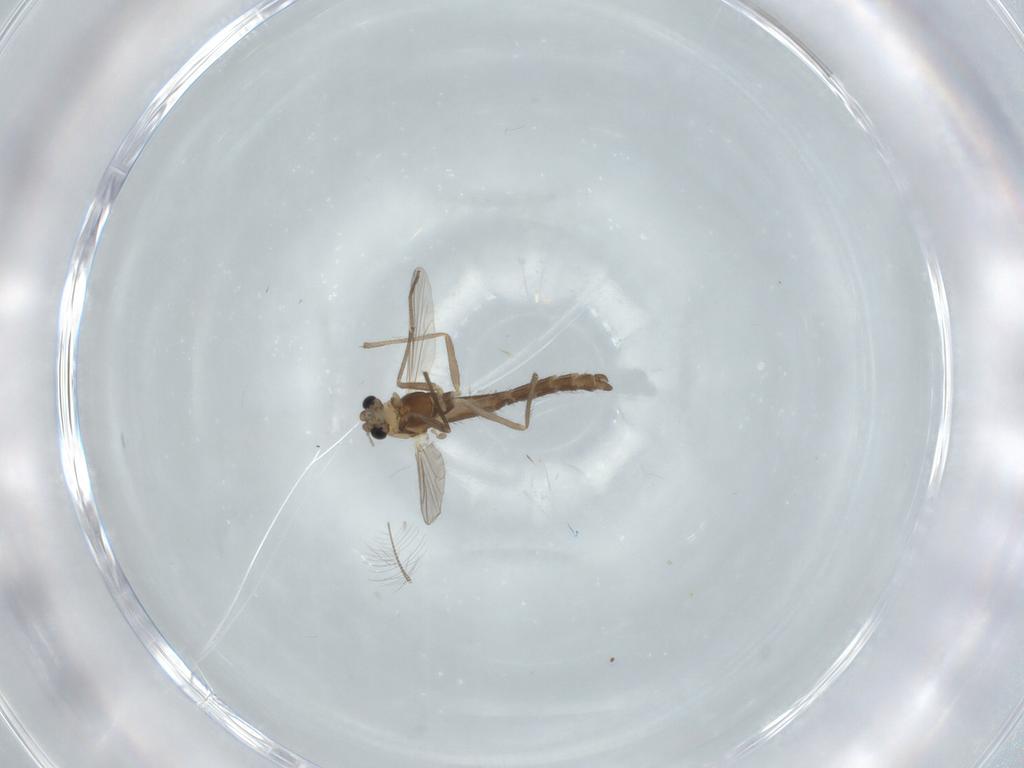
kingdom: Animalia
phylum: Arthropoda
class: Insecta
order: Diptera
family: Chironomidae
